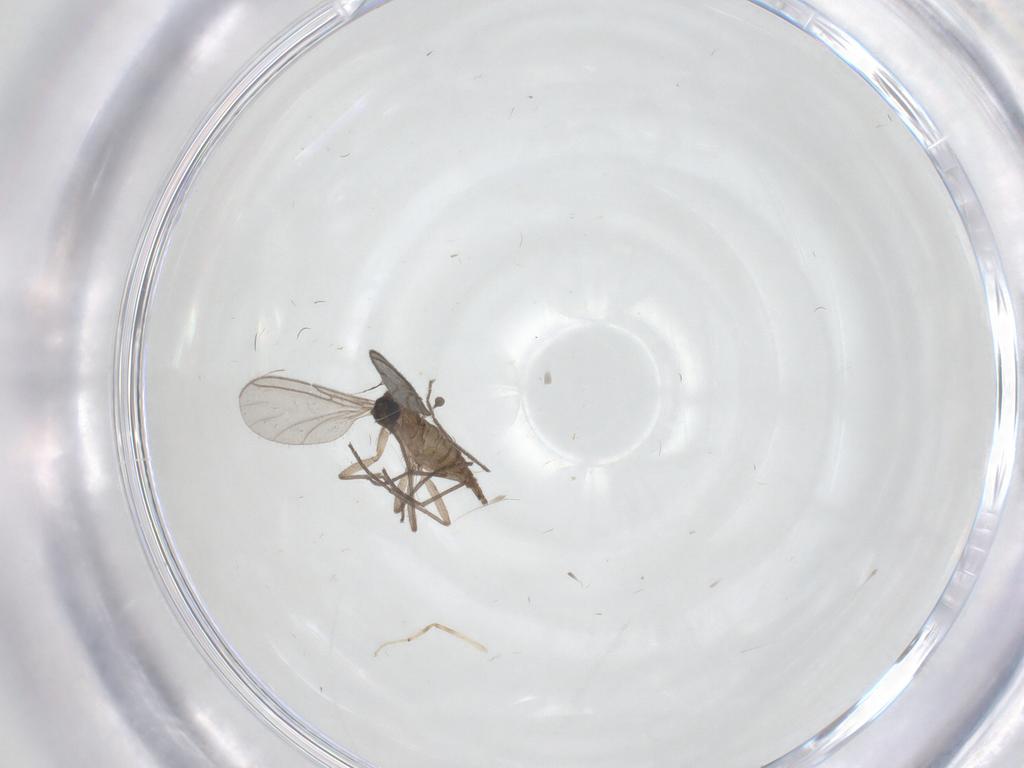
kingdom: Animalia
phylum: Arthropoda
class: Insecta
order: Diptera
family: Sciaridae
